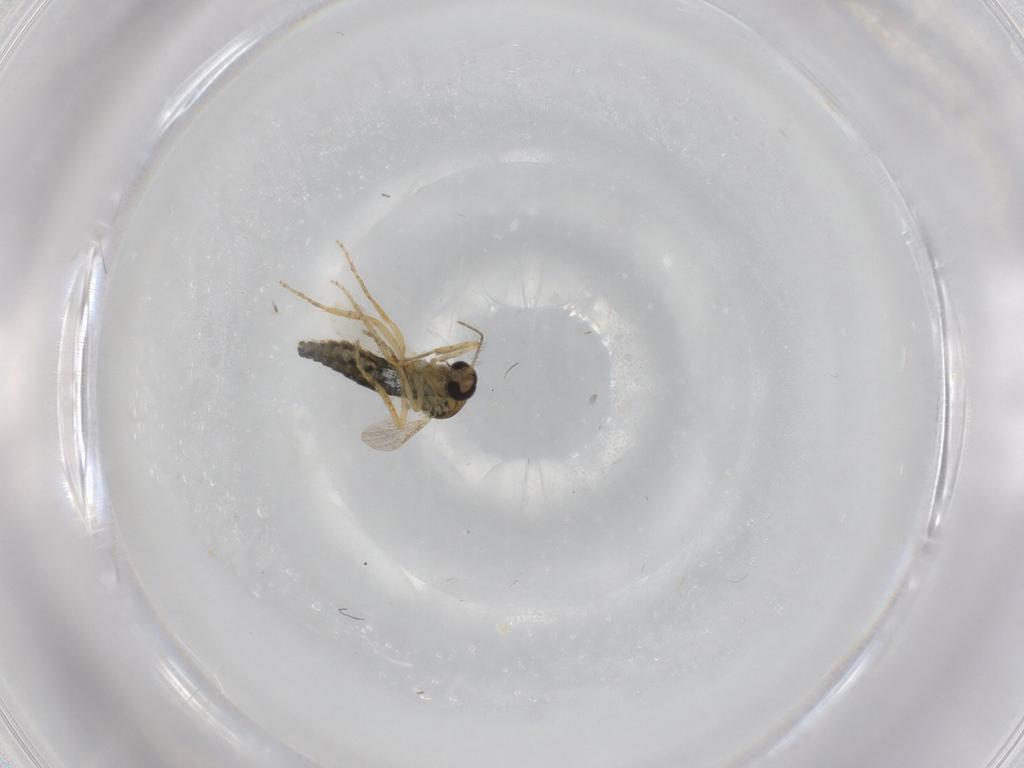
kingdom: Animalia
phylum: Arthropoda
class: Insecta
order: Diptera
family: Ceratopogonidae
